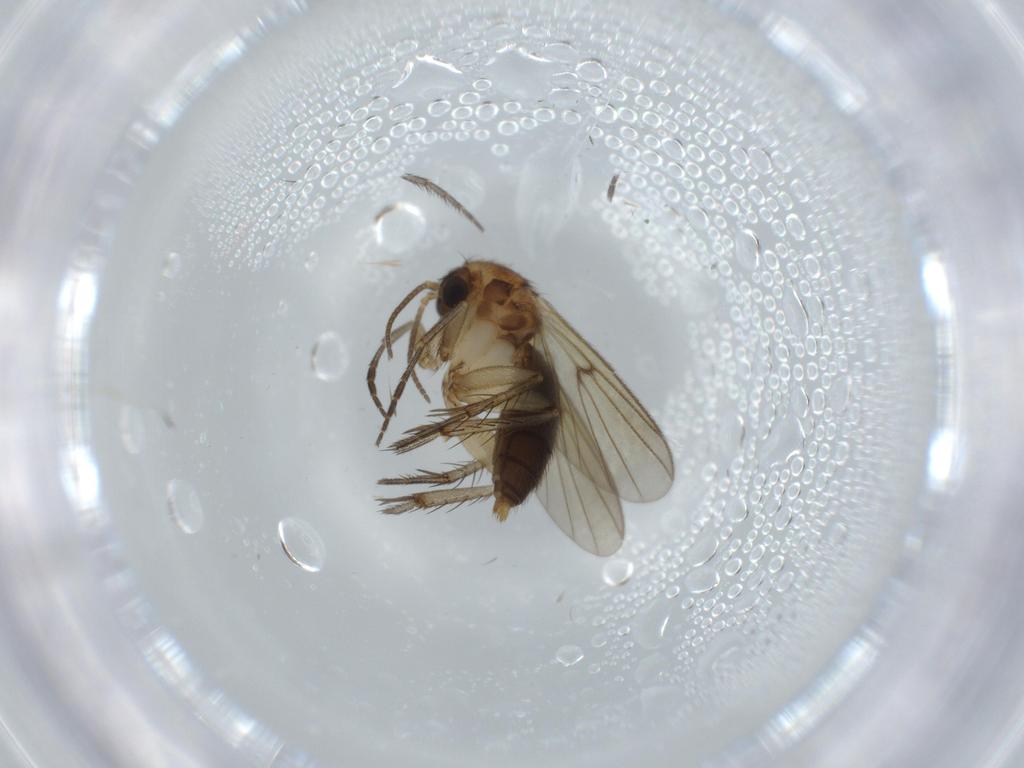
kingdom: Animalia
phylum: Arthropoda
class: Insecta
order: Diptera
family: Mycetophilidae
